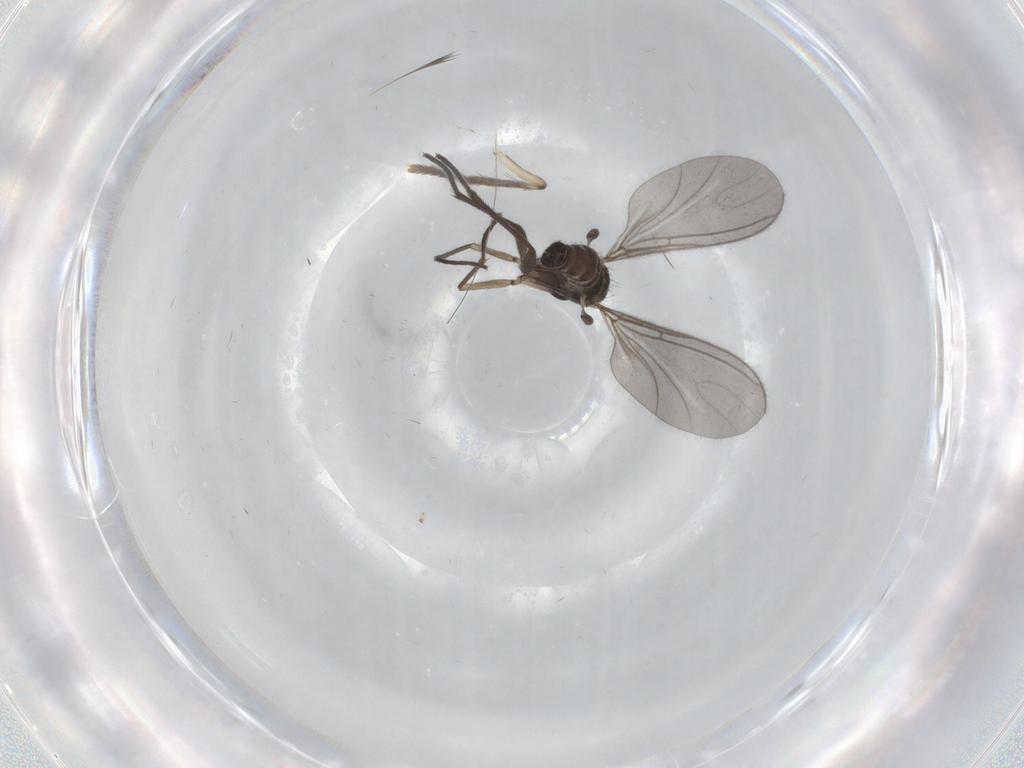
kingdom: Animalia
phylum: Arthropoda
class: Insecta
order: Diptera
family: Psychodidae
